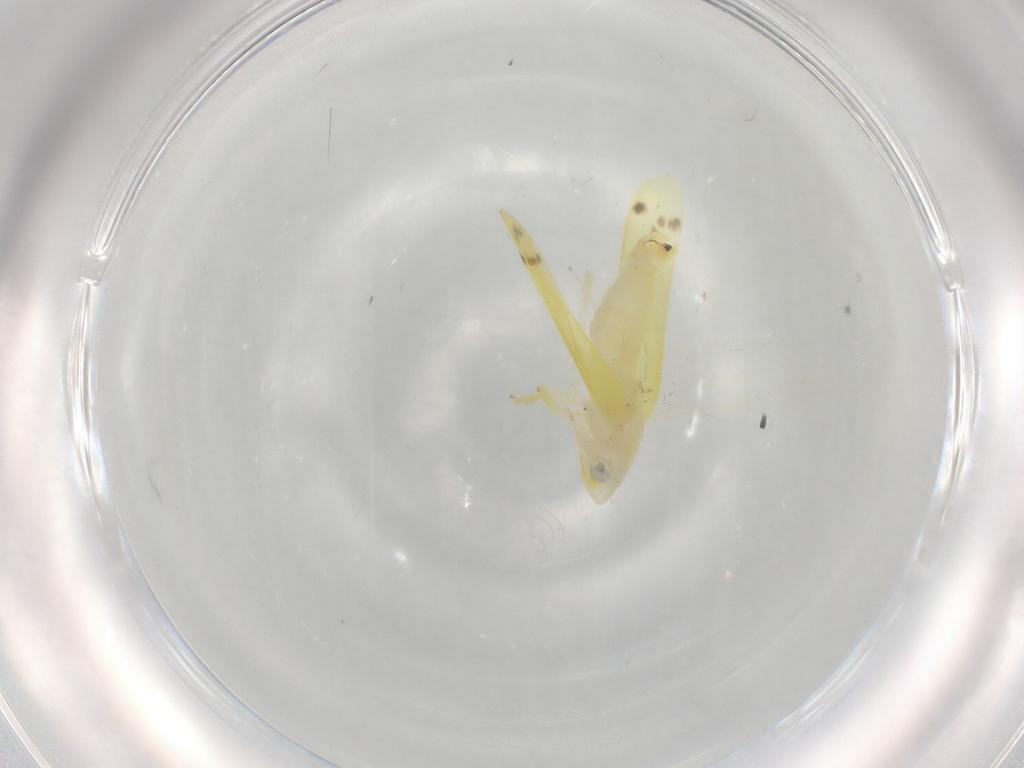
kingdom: Animalia
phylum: Arthropoda
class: Insecta
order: Hemiptera
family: Cicadellidae
